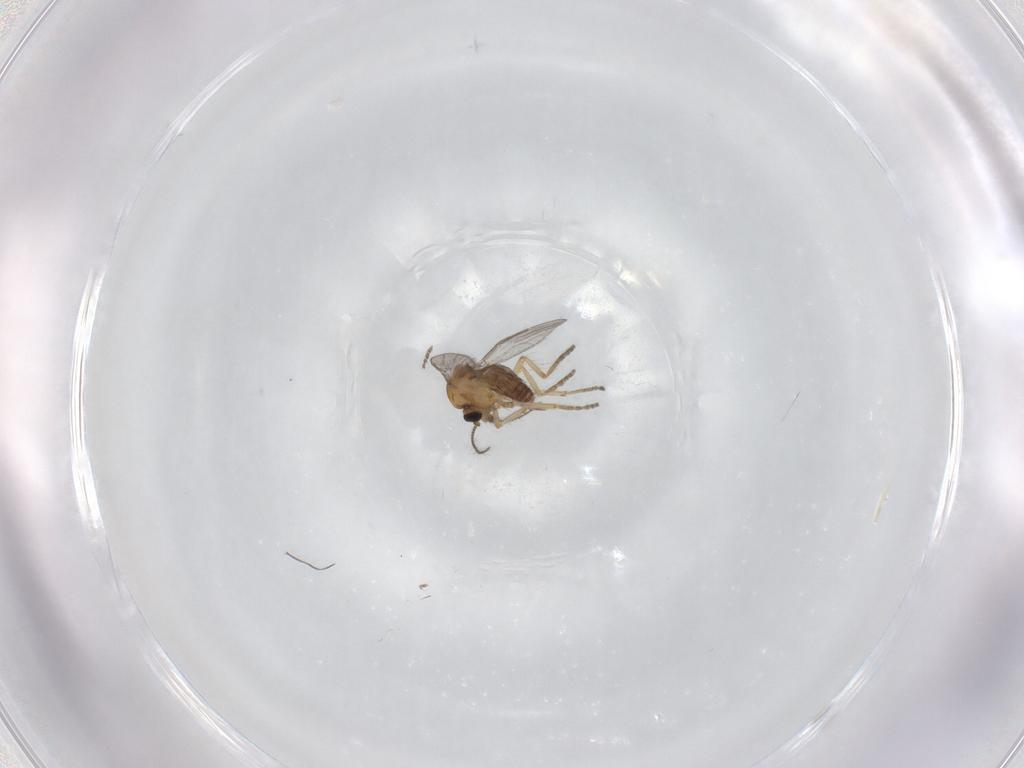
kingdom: Animalia
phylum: Arthropoda
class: Insecta
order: Diptera
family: Phoridae
